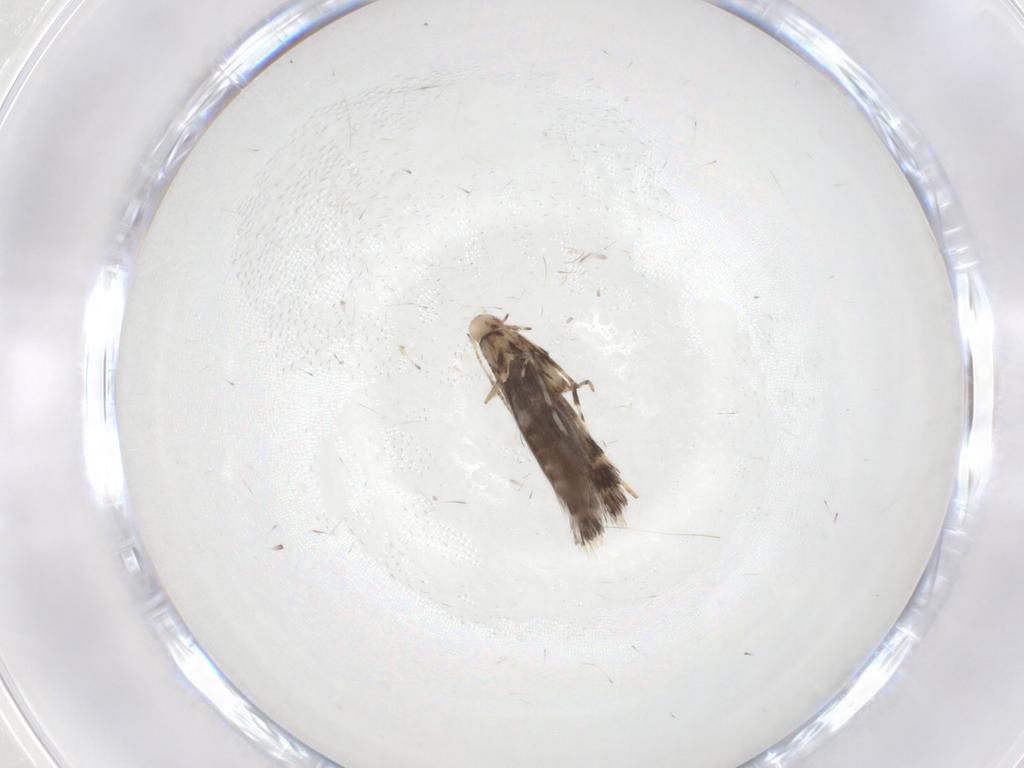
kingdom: Animalia
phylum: Arthropoda
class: Insecta
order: Lepidoptera
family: Gracillariidae
